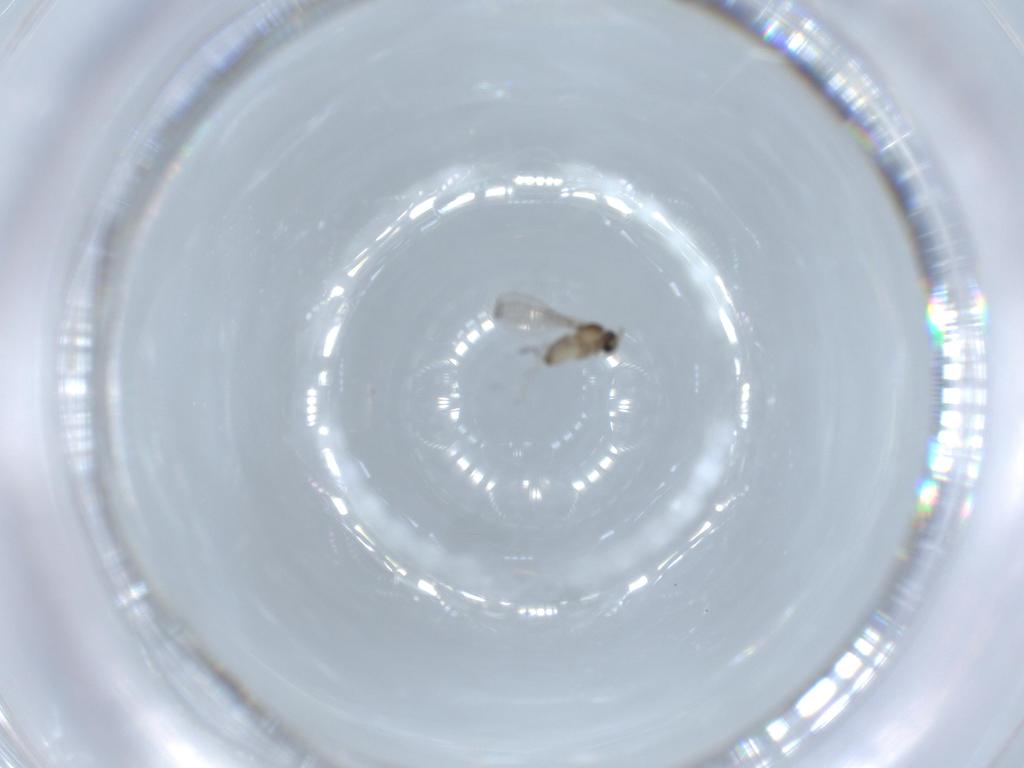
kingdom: Animalia
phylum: Arthropoda
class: Insecta
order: Diptera
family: Cecidomyiidae
